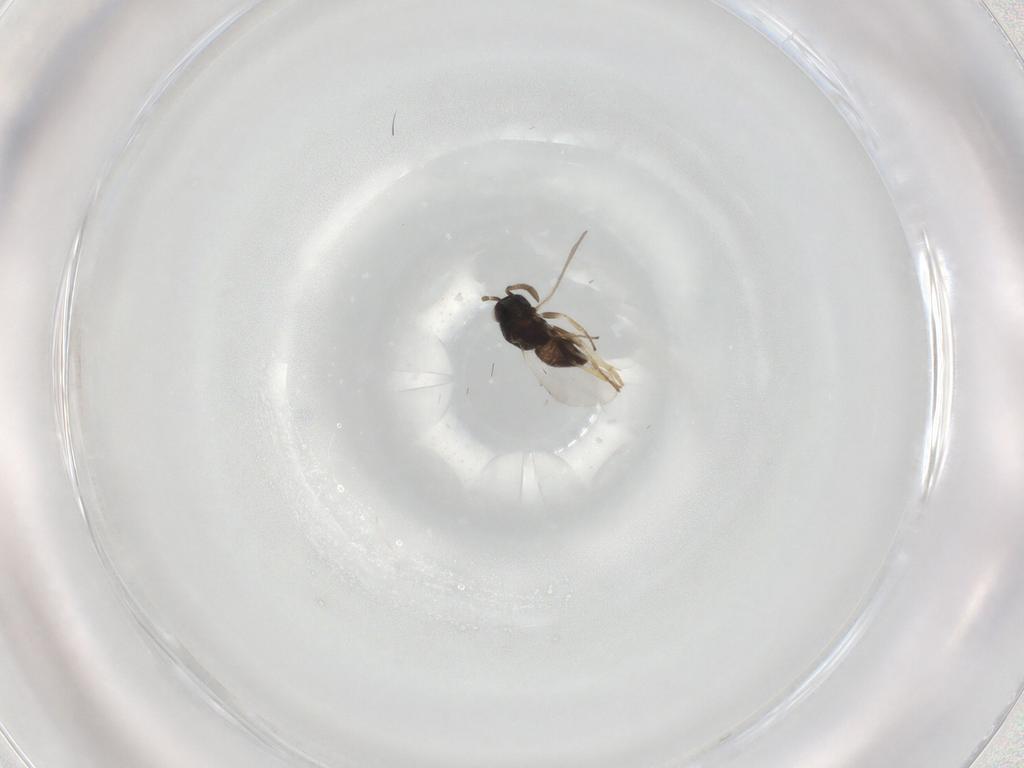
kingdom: Animalia
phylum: Arthropoda
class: Insecta
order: Hymenoptera
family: Encyrtidae
